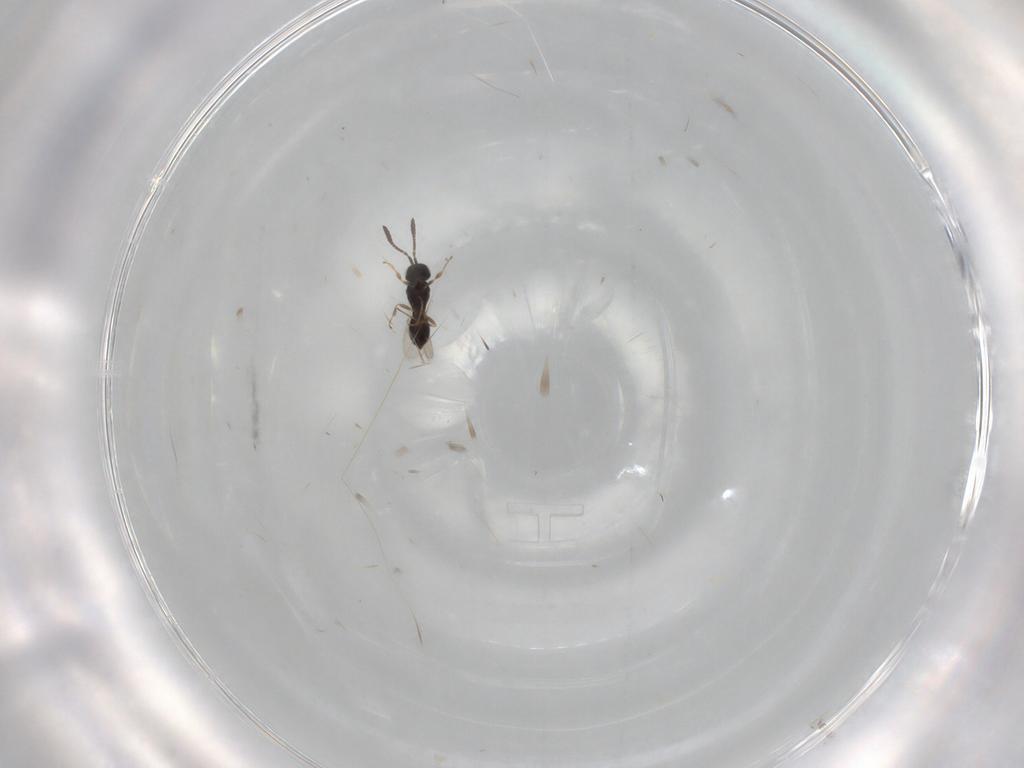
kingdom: Animalia
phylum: Arthropoda
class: Insecta
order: Hymenoptera
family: Scelionidae
